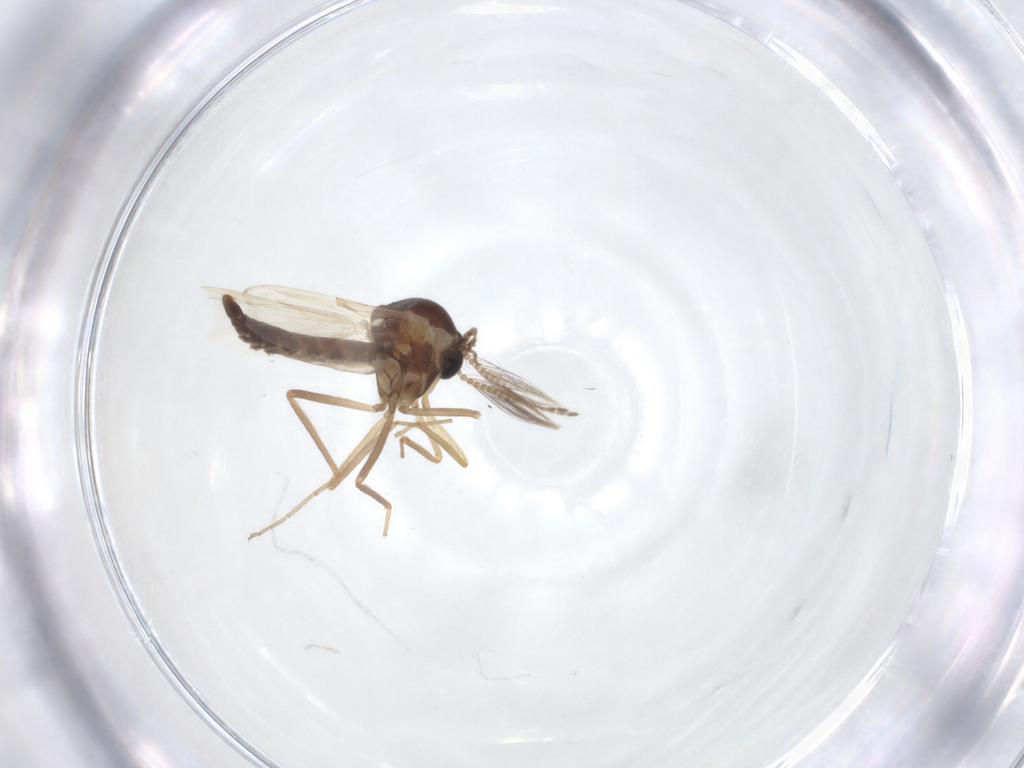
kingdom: Animalia
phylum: Arthropoda
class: Insecta
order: Diptera
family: Ceratopogonidae
